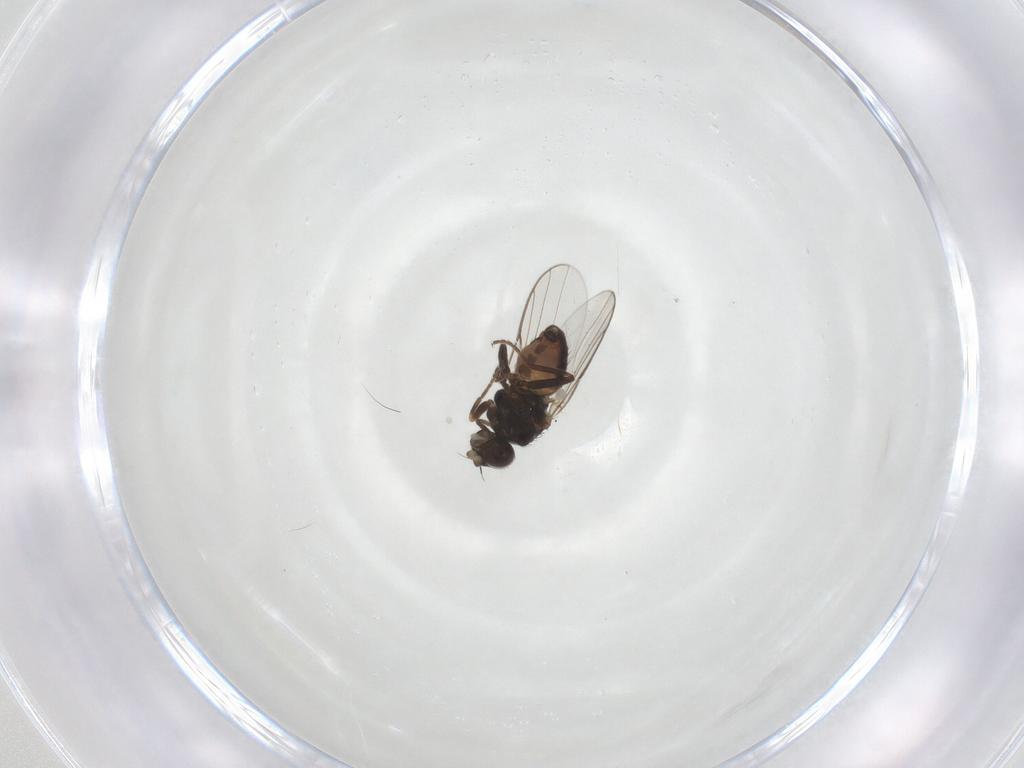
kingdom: Animalia
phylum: Arthropoda
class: Insecta
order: Diptera
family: Chloropidae
